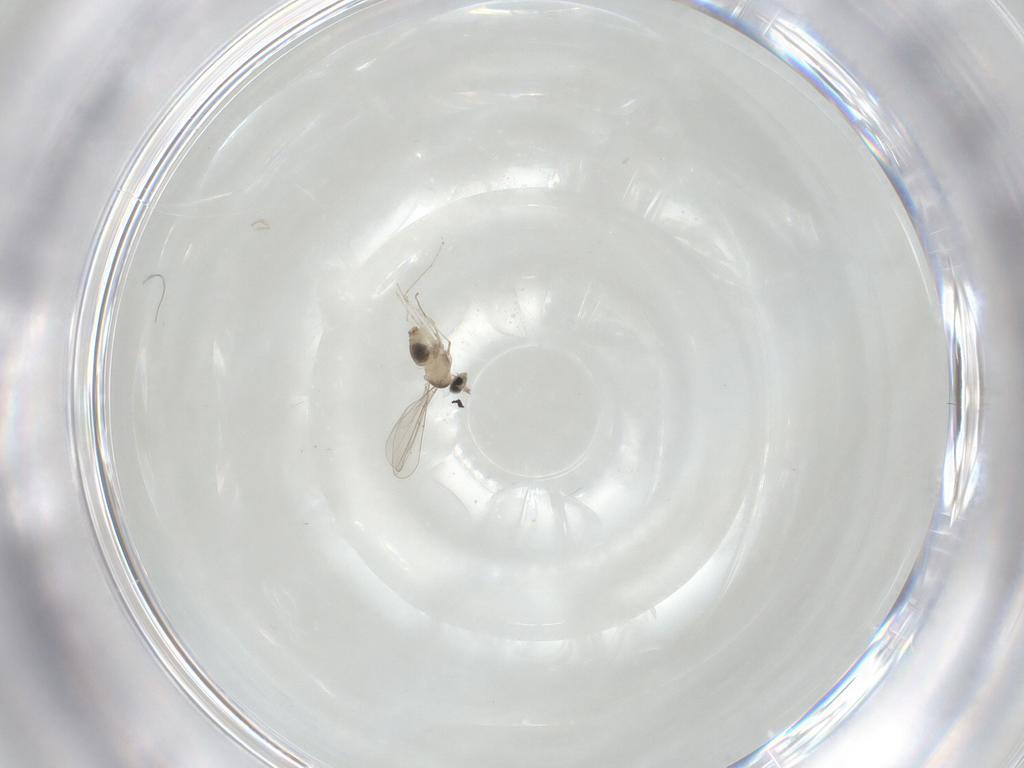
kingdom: Animalia
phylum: Arthropoda
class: Insecta
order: Diptera
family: Cecidomyiidae
